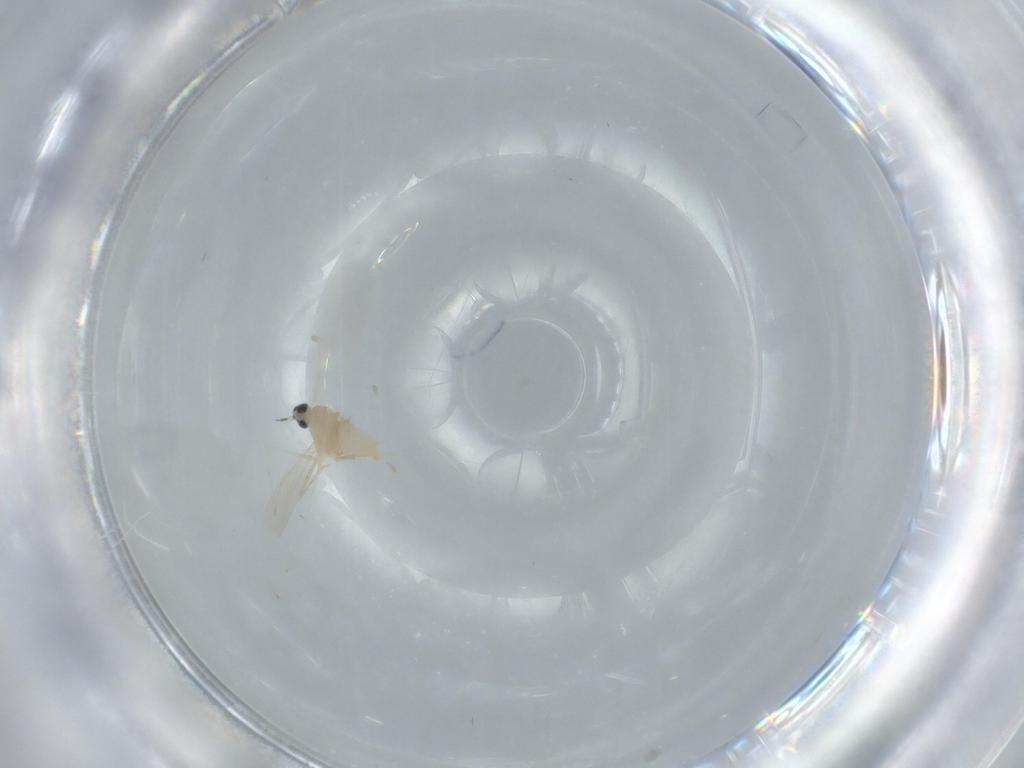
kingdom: Animalia
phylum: Arthropoda
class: Insecta
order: Diptera
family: Cecidomyiidae
